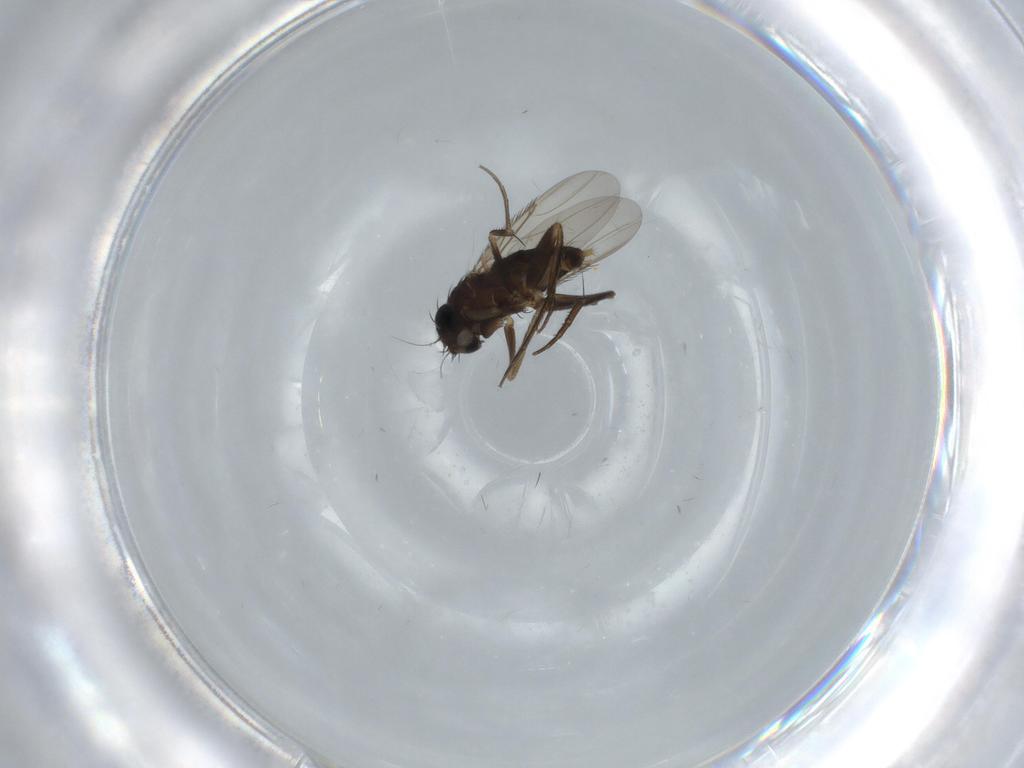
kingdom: Animalia
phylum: Arthropoda
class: Insecta
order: Diptera
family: Phoridae
